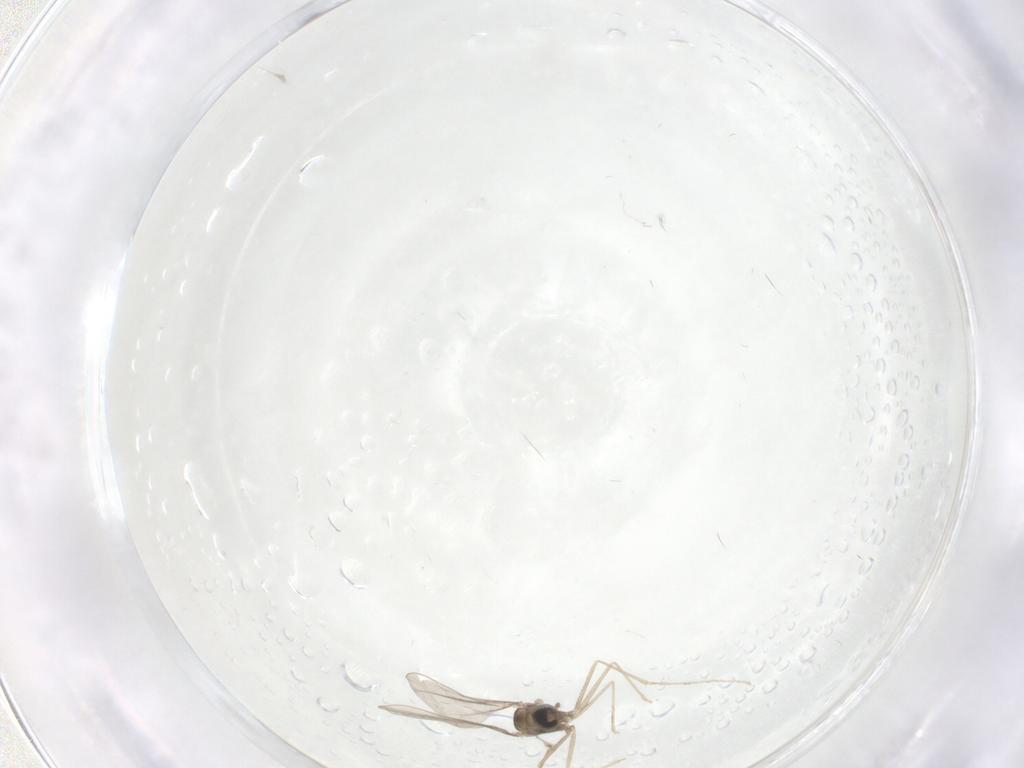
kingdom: Animalia
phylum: Arthropoda
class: Insecta
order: Diptera
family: Cecidomyiidae
